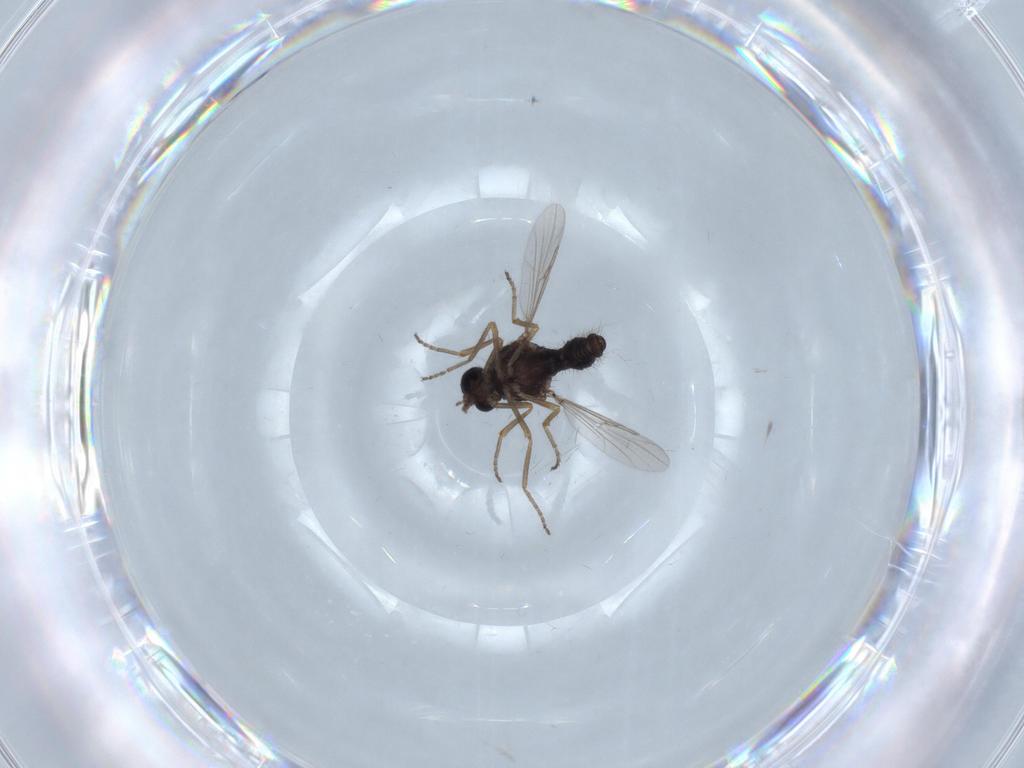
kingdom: Animalia
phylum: Arthropoda
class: Insecta
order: Diptera
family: Ceratopogonidae
